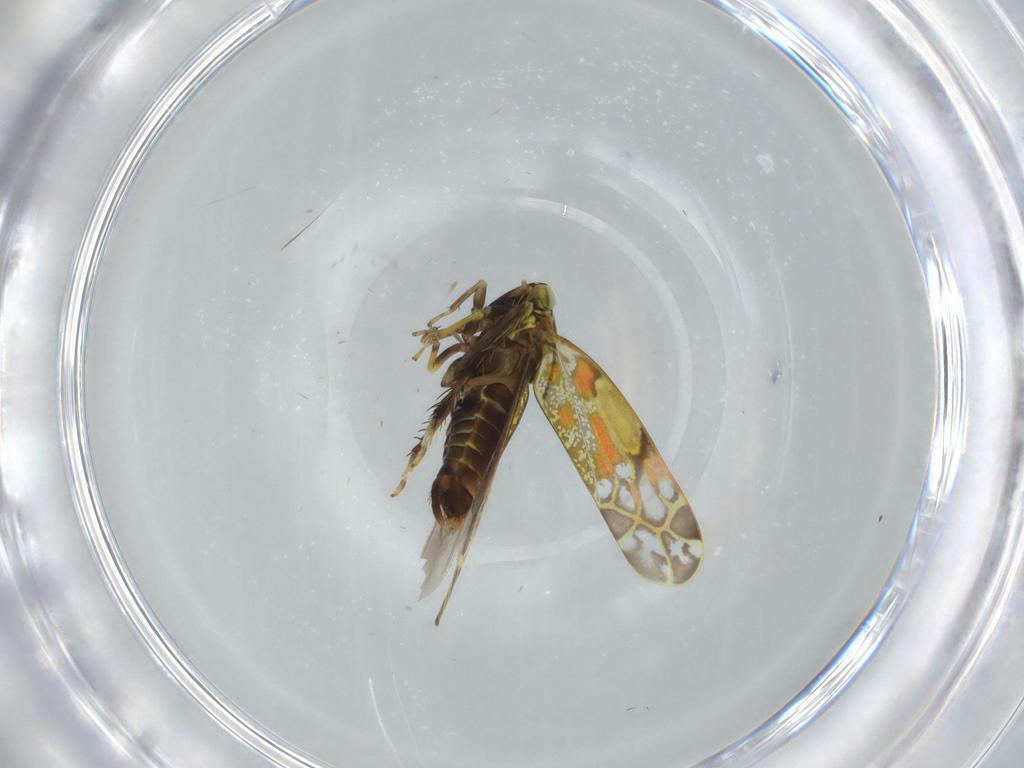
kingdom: Animalia
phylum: Arthropoda
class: Insecta
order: Hemiptera
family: Cicadellidae
